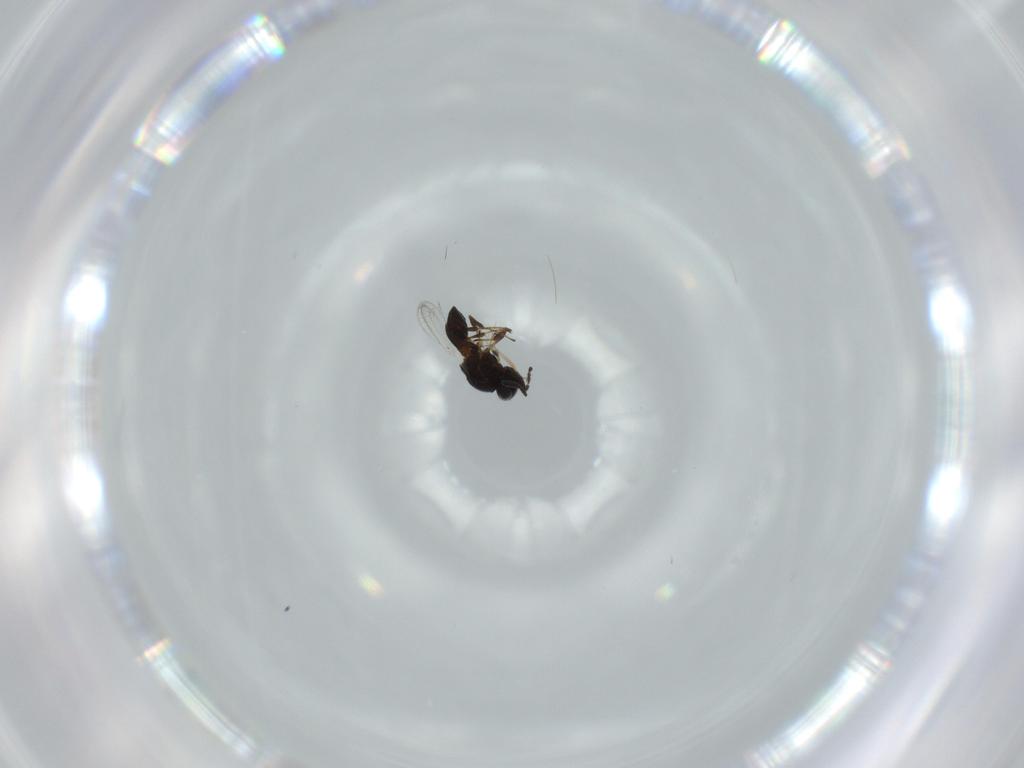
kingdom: Animalia
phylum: Arthropoda
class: Insecta
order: Hymenoptera
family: Platygastridae
